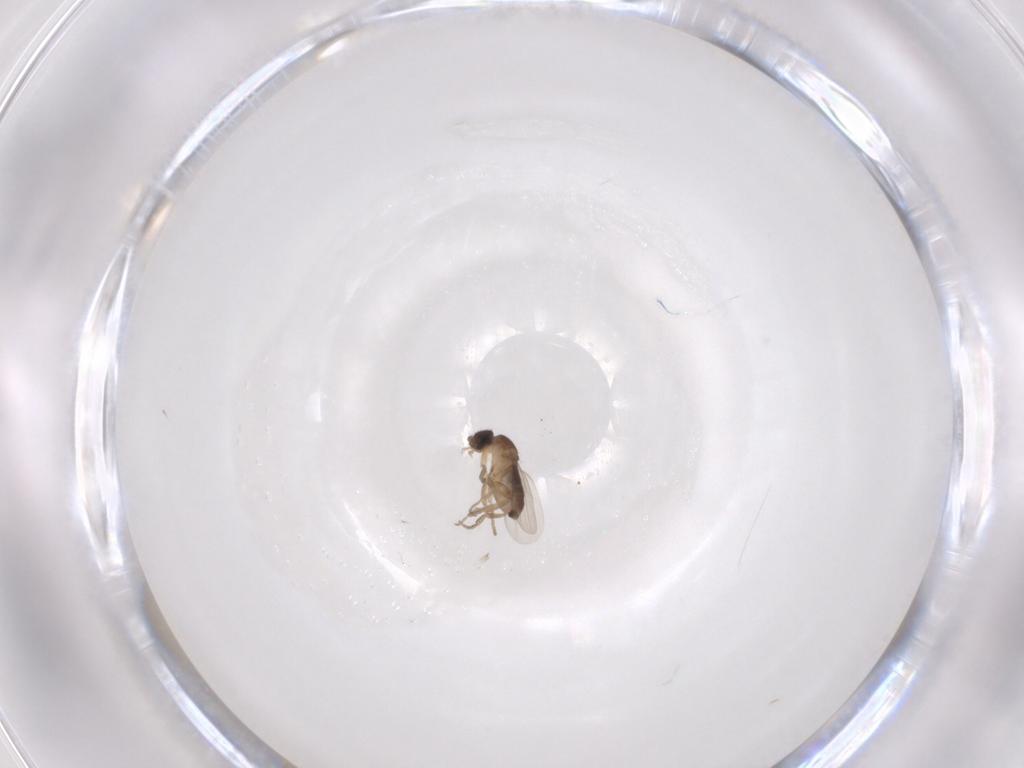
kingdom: Animalia
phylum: Arthropoda
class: Insecta
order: Diptera
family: Phoridae
